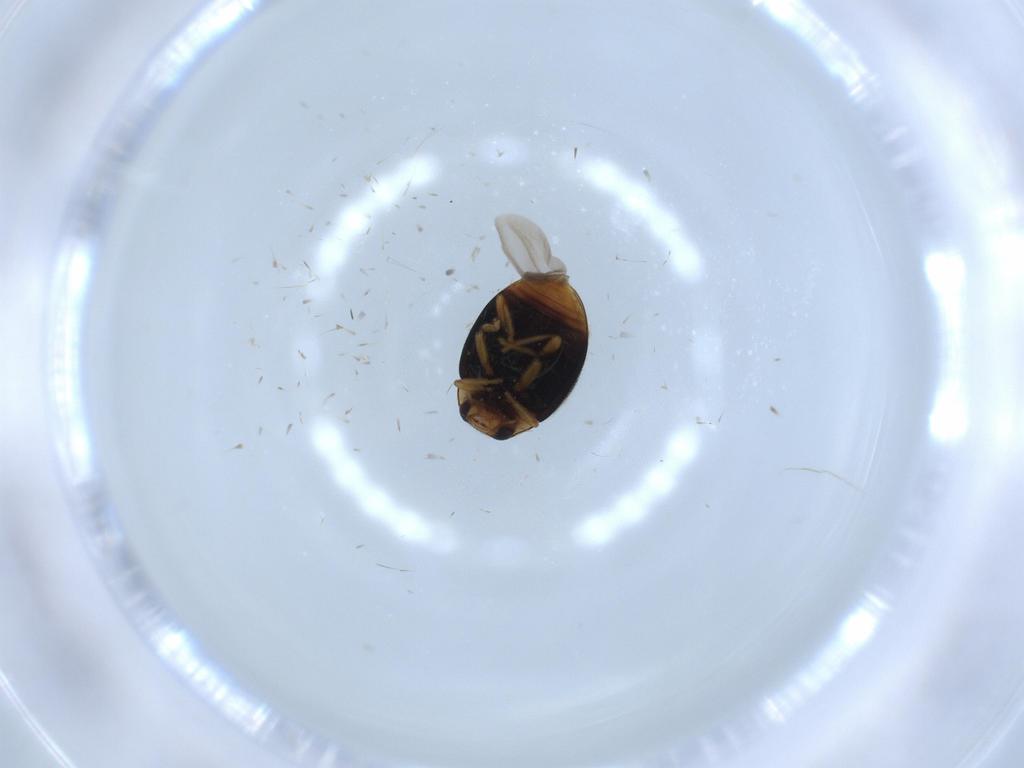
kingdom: Animalia
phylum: Arthropoda
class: Insecta
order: Coleoptera
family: Coccinellidae
